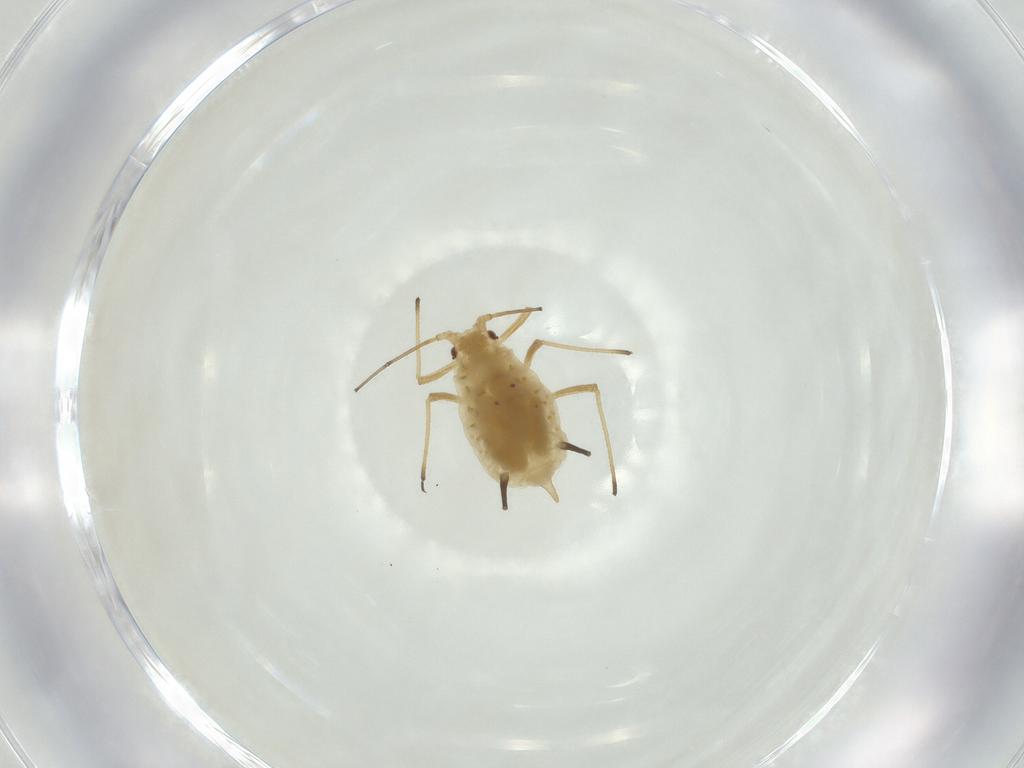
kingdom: Animalia
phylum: Arthropoda
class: Insecta
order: Hemiptera
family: Aphididae
